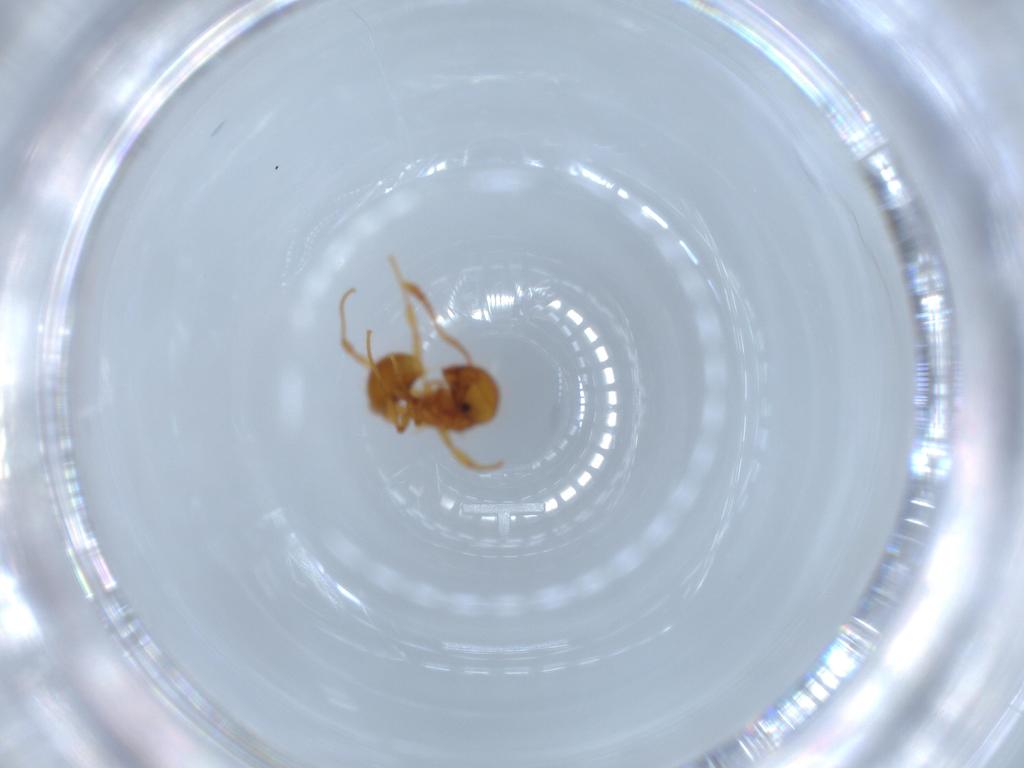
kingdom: Animalia
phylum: Arthropoda
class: Insecta
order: Hymenoptera
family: Formicidae
